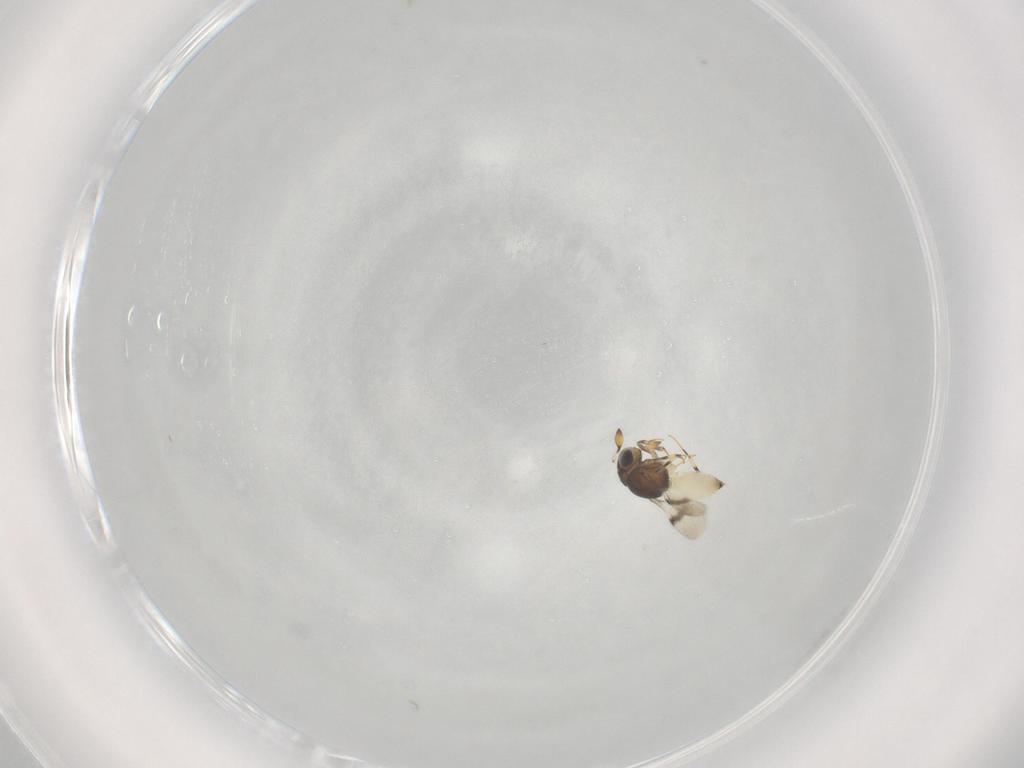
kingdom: Animalia
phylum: Arthropoda
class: Insecta
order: Hymenoptera
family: Scelionidae
